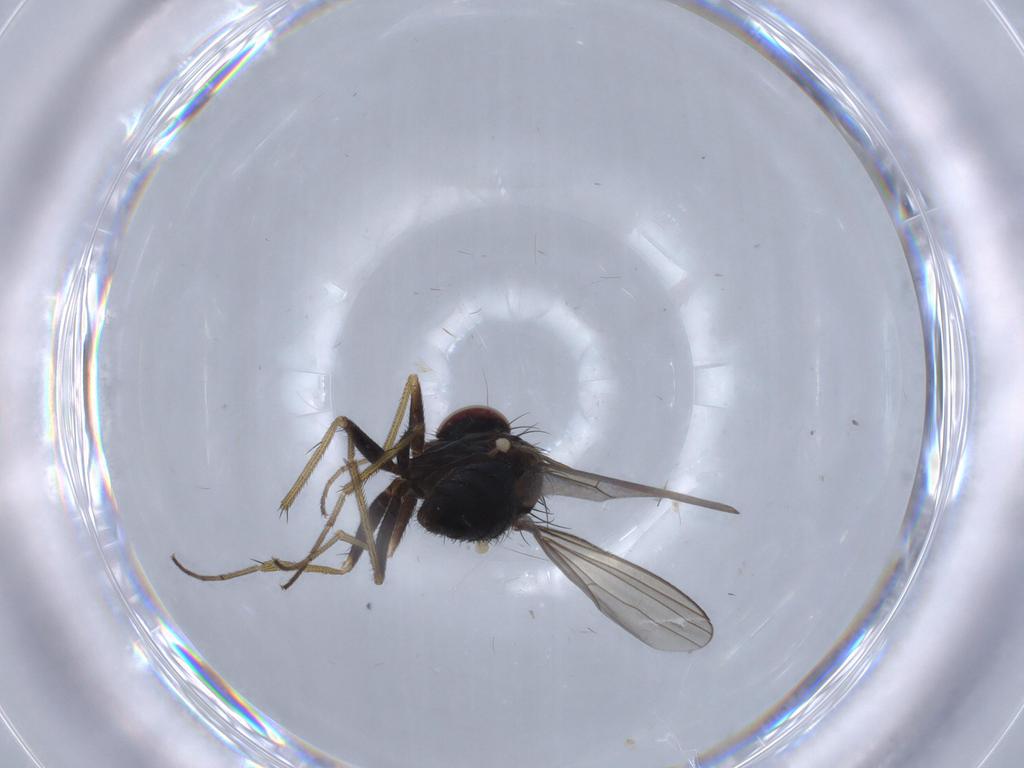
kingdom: Animalia
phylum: Arthropoda
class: Insecta
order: Diptera
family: Dolichopodidae
